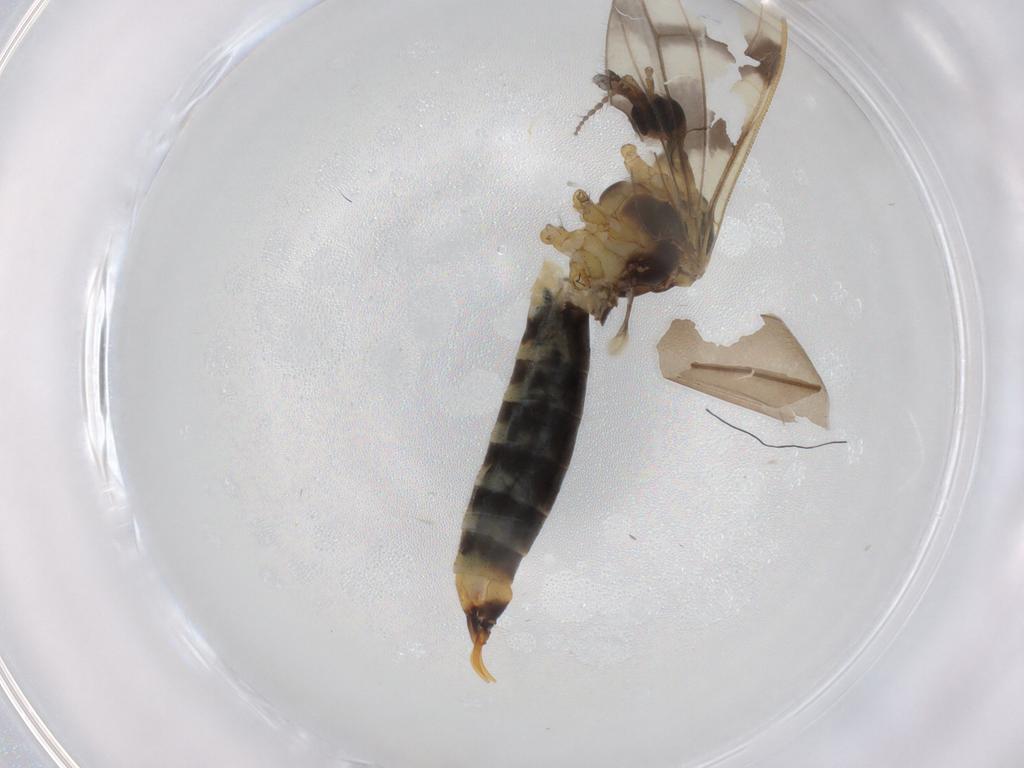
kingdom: Animalia
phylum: Arthropoda
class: Insecta
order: Diptera
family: Limoniidae
